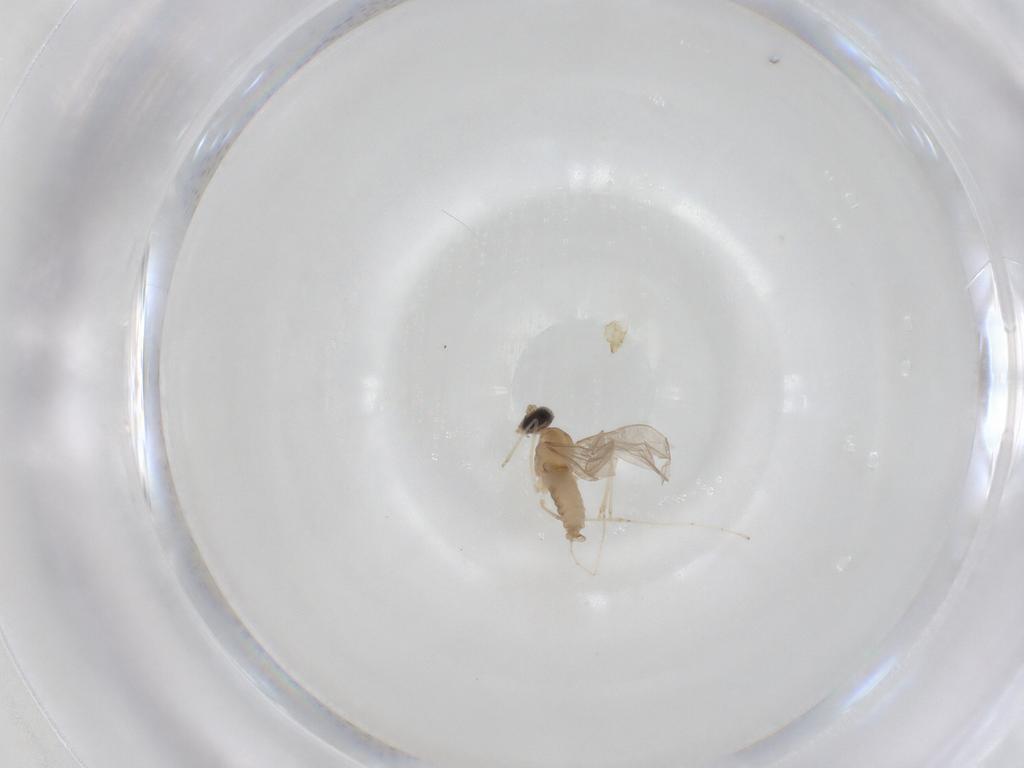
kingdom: Animalia
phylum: Arthropoda
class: Insecta
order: Diptera
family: Cecidomyiidae
